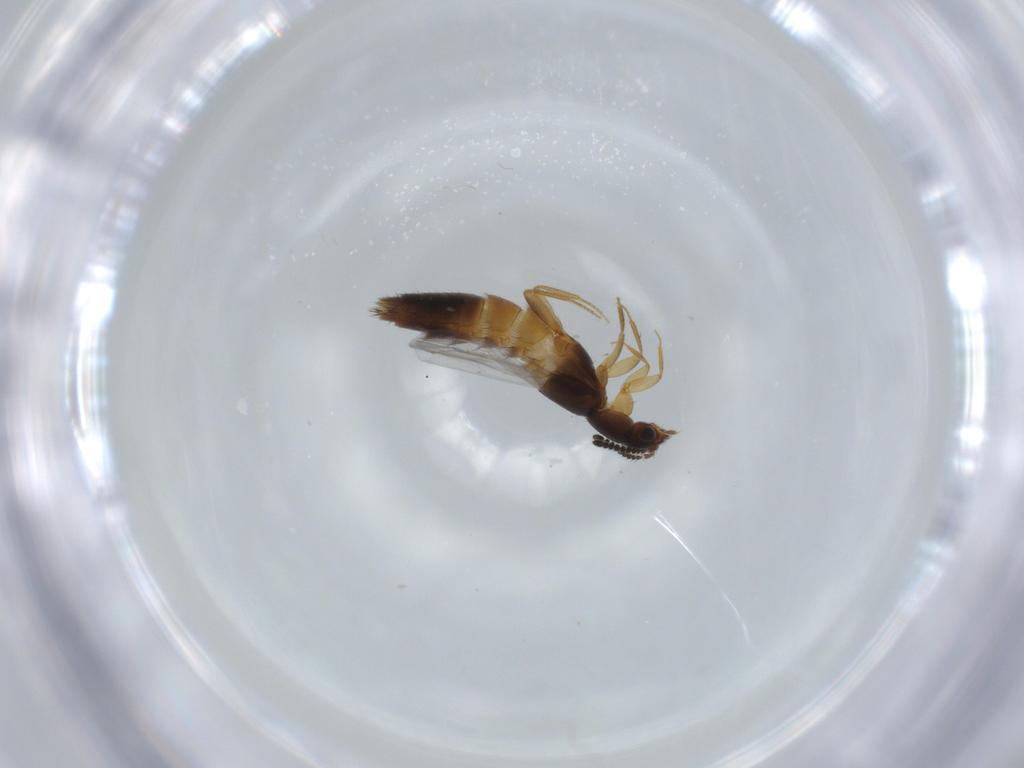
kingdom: Animalia
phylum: Arthropoda
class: Insecta
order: Coleoptera
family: Staphylinidae
